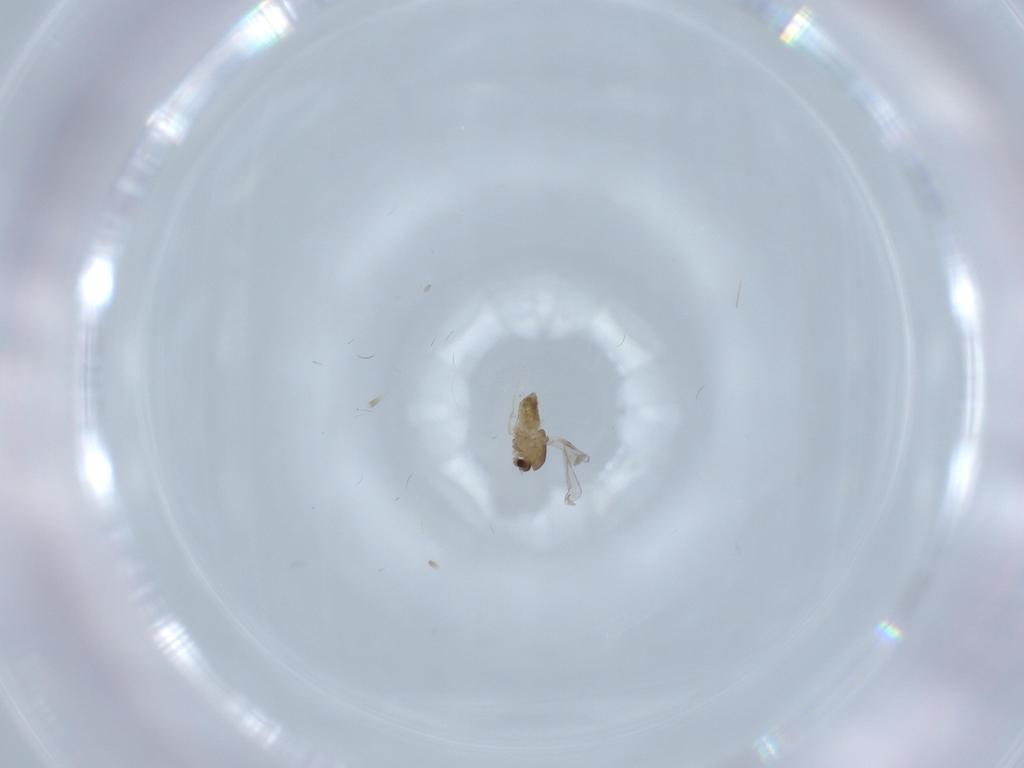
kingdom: Animalia
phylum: Arthropoda
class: Insecta
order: Diptera
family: Chironomidae
